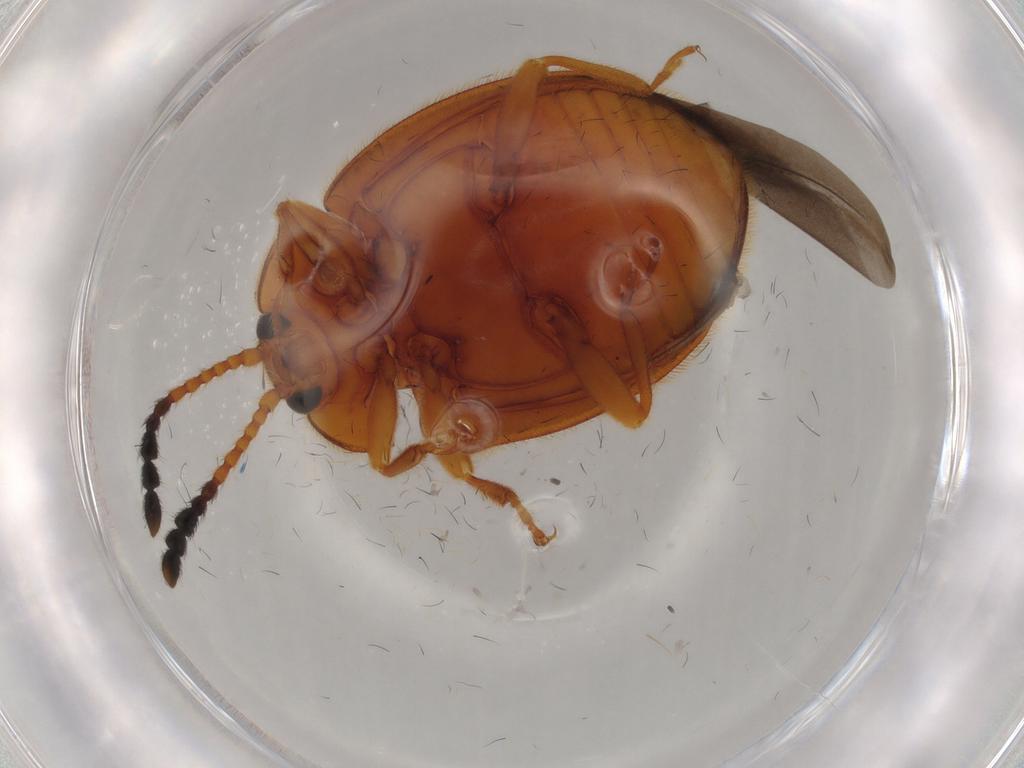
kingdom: Animalia
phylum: Arthropoda
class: Insecta
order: Coleoptera
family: Endomychidae
